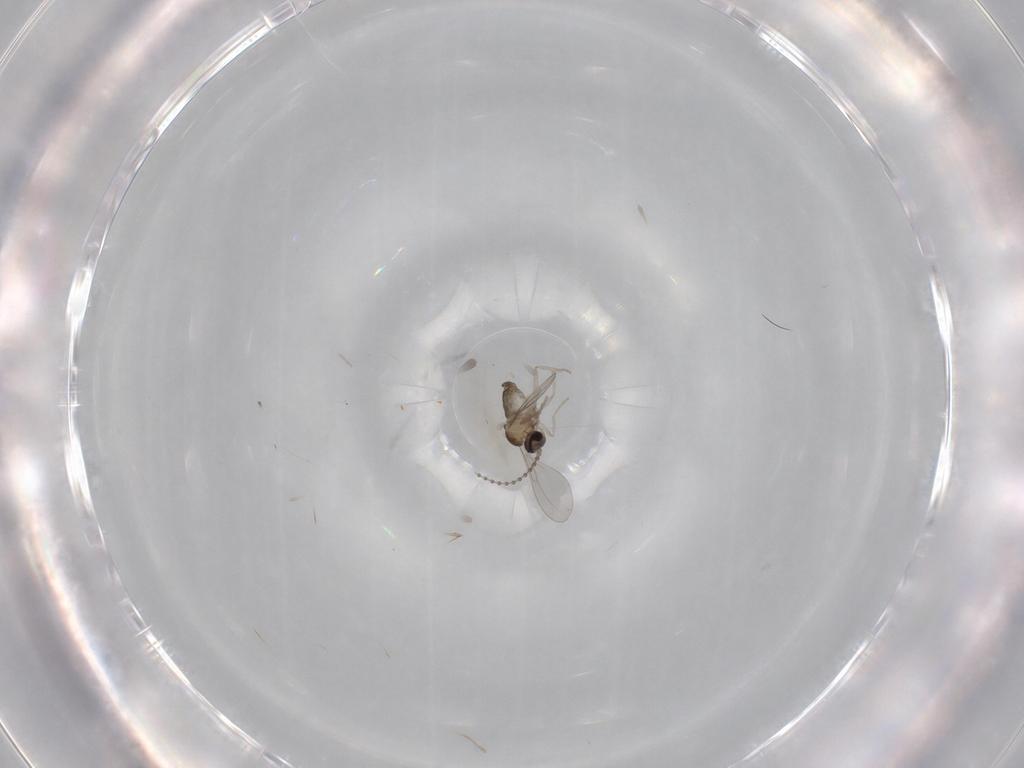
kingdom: Animalia
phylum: Arthropoda
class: Insecta
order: Diptera
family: Cecidomyiidae
